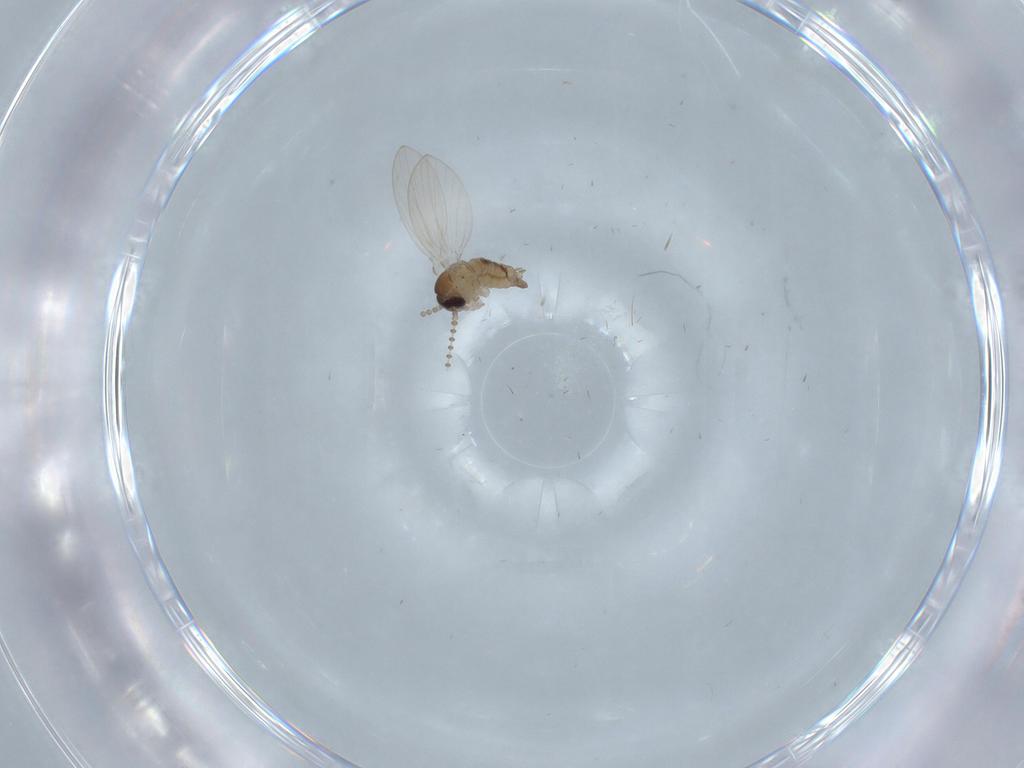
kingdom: Animalia
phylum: Arthropoda
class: Insecta
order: Diptera
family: Psychodidae
